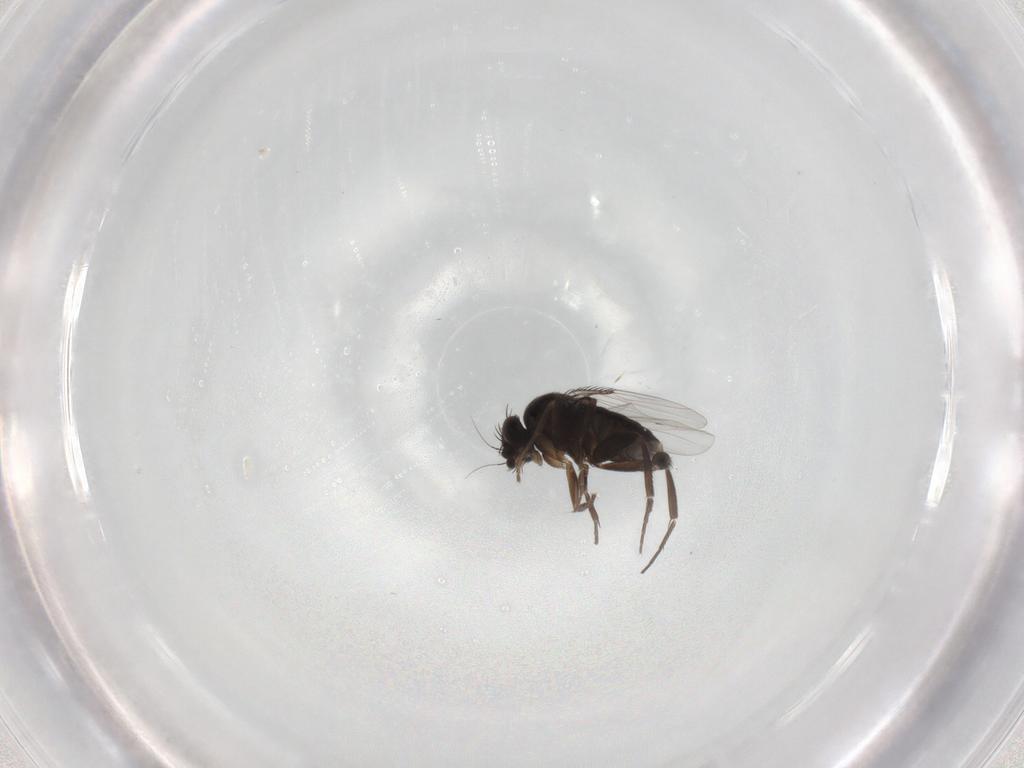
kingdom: Animalia
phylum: Arthropoda
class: Insecta
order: Diptera
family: Phoridae
